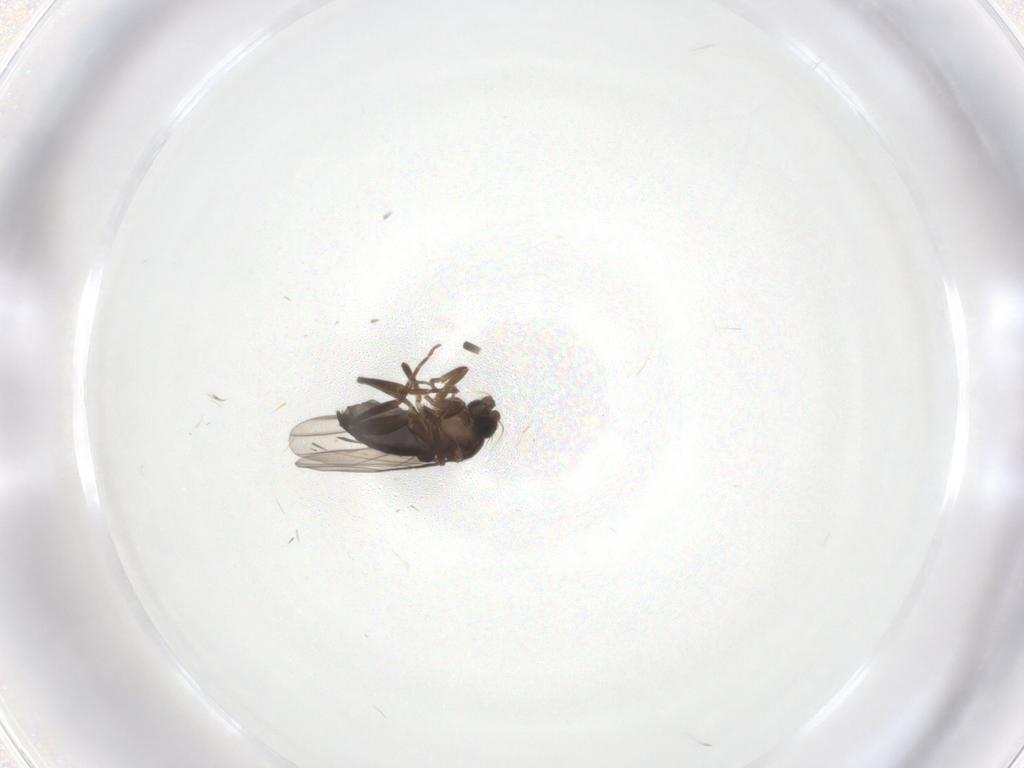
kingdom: Animalia
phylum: Arthropoda
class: Insecta
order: Diptera
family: Phoridae
